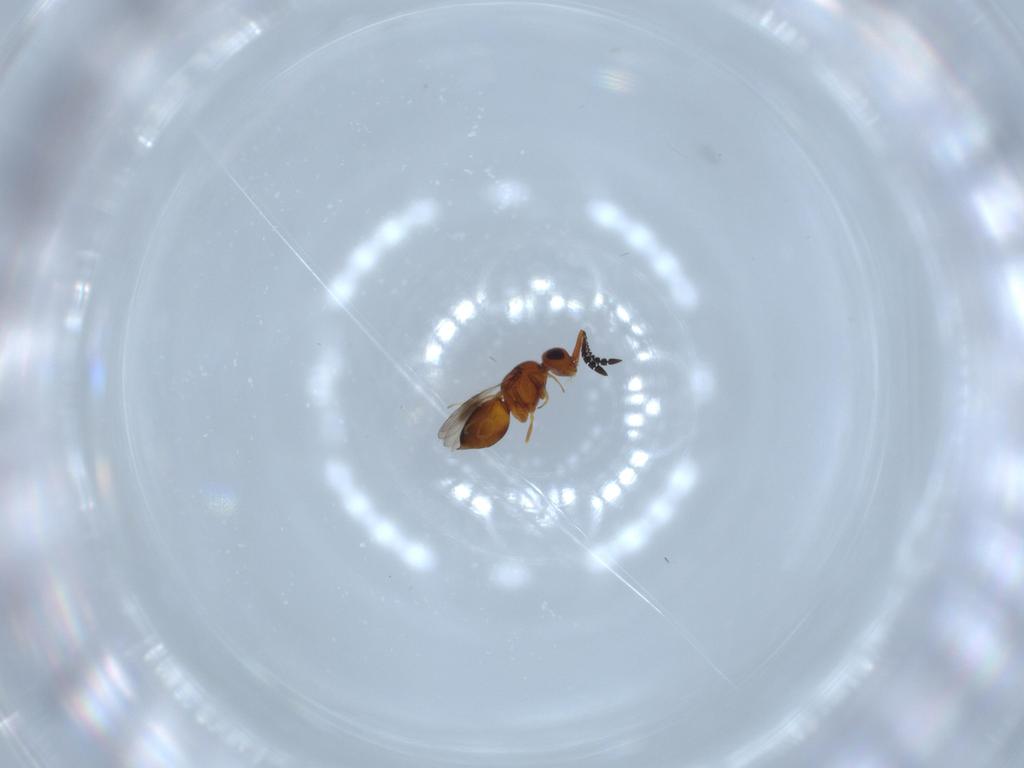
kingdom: Animalia
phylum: Arthropoda
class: Insecta
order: Hymenoptera
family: Ceraphronidae
